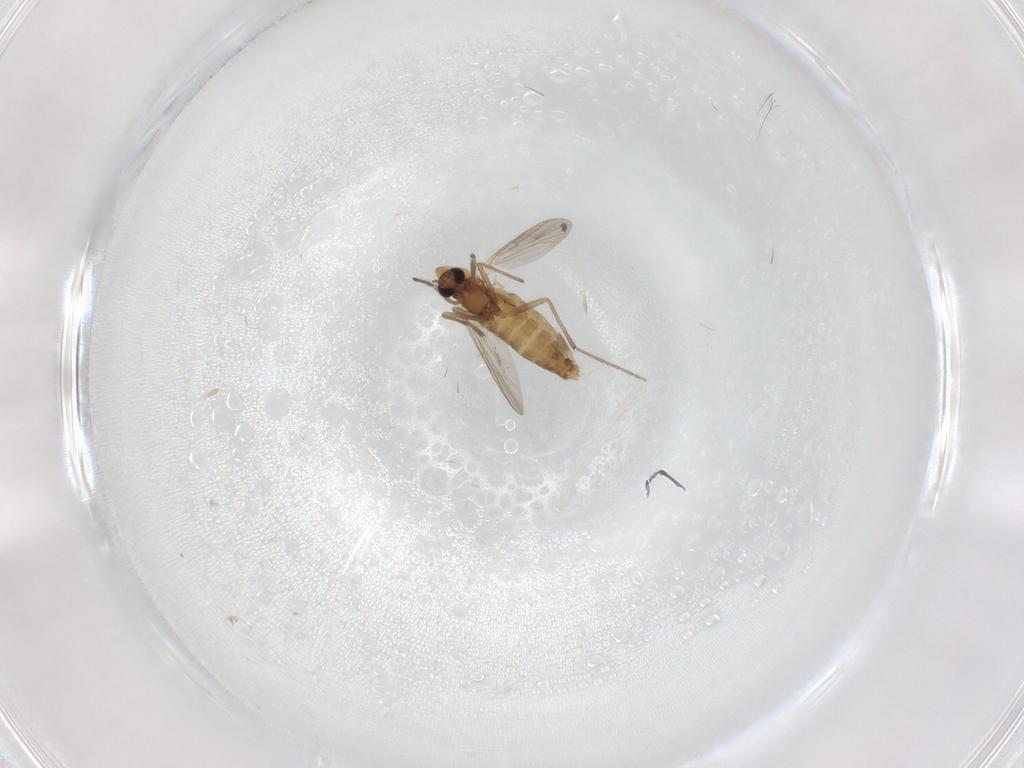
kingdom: Animalia
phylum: Arthropoda
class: Insecta
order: Diptera
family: Chironomidae
